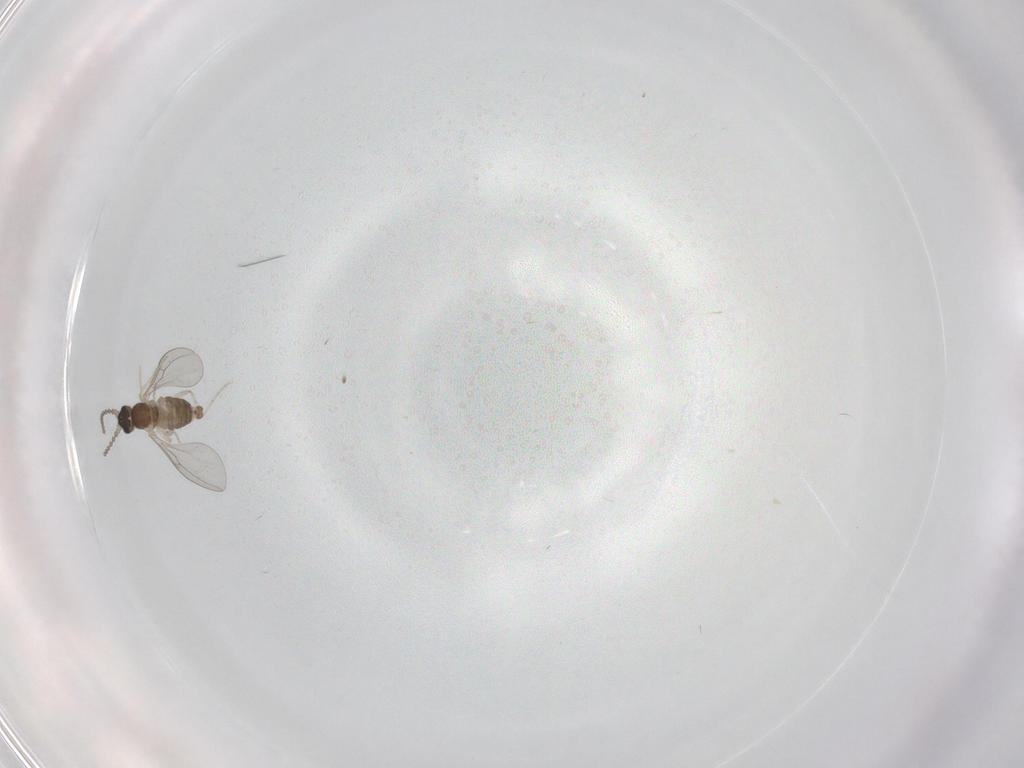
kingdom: Animalia
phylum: Arthropoda
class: Insecta
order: Diptera
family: Cecidomyiidae
